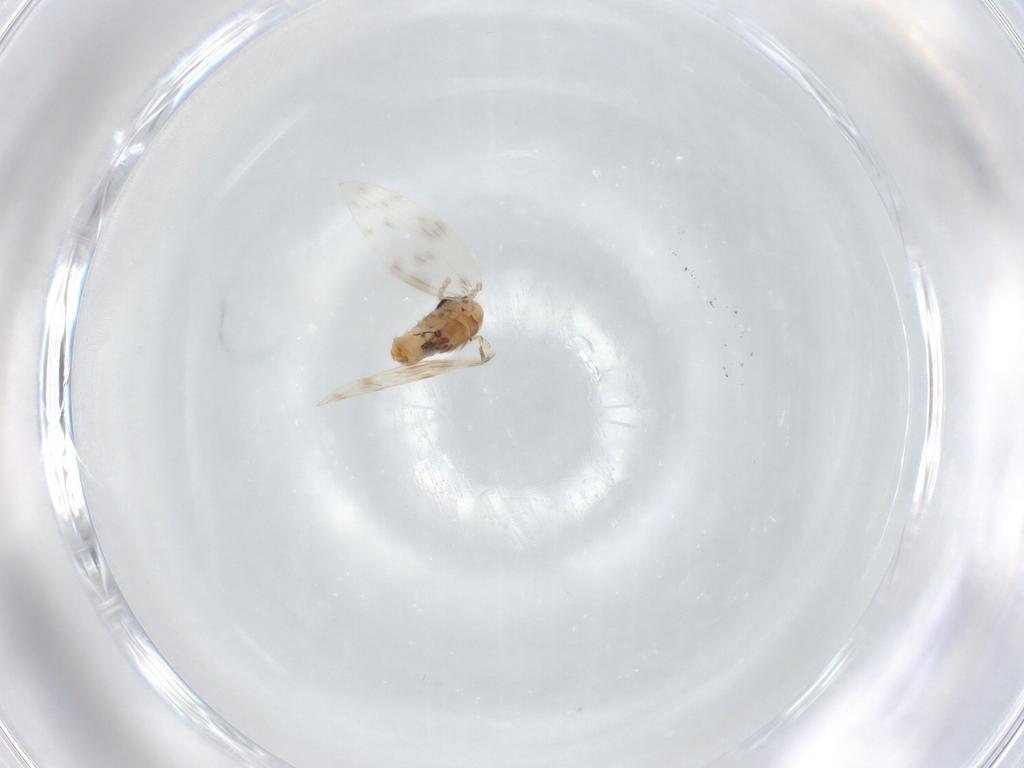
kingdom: Animalia
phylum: Arthropoda
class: Insecta
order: Diptera
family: Psychodidae
